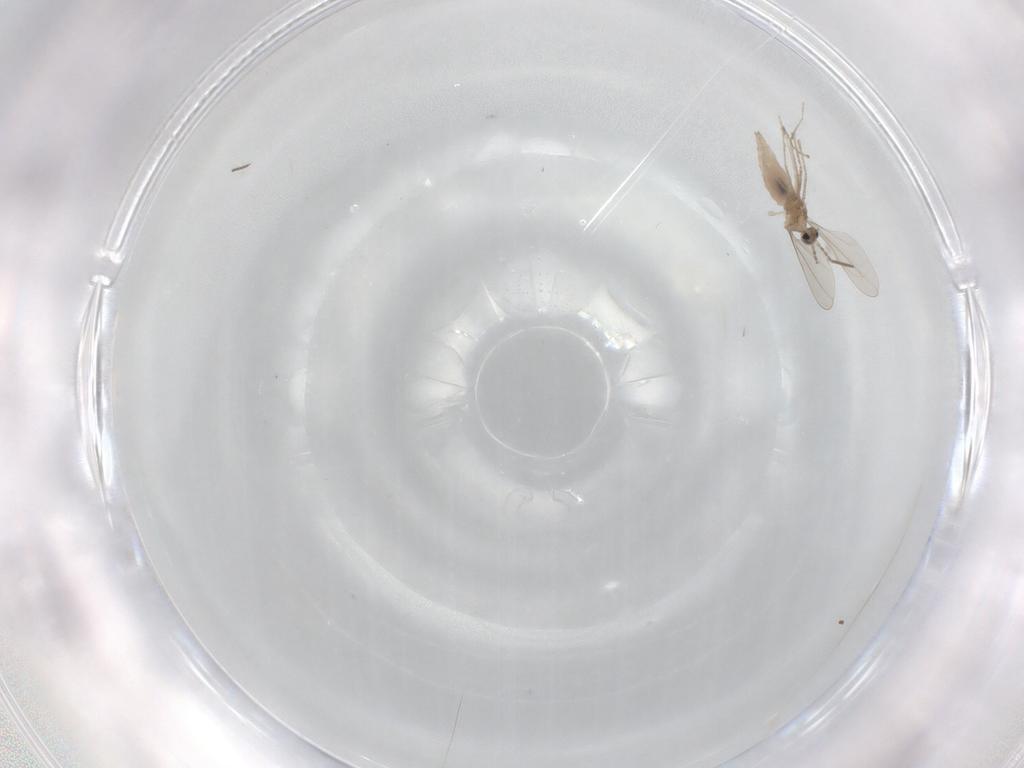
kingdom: Animalia
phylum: Arthropoda
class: Insecta
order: Diptera
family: Cecidomyiidae
